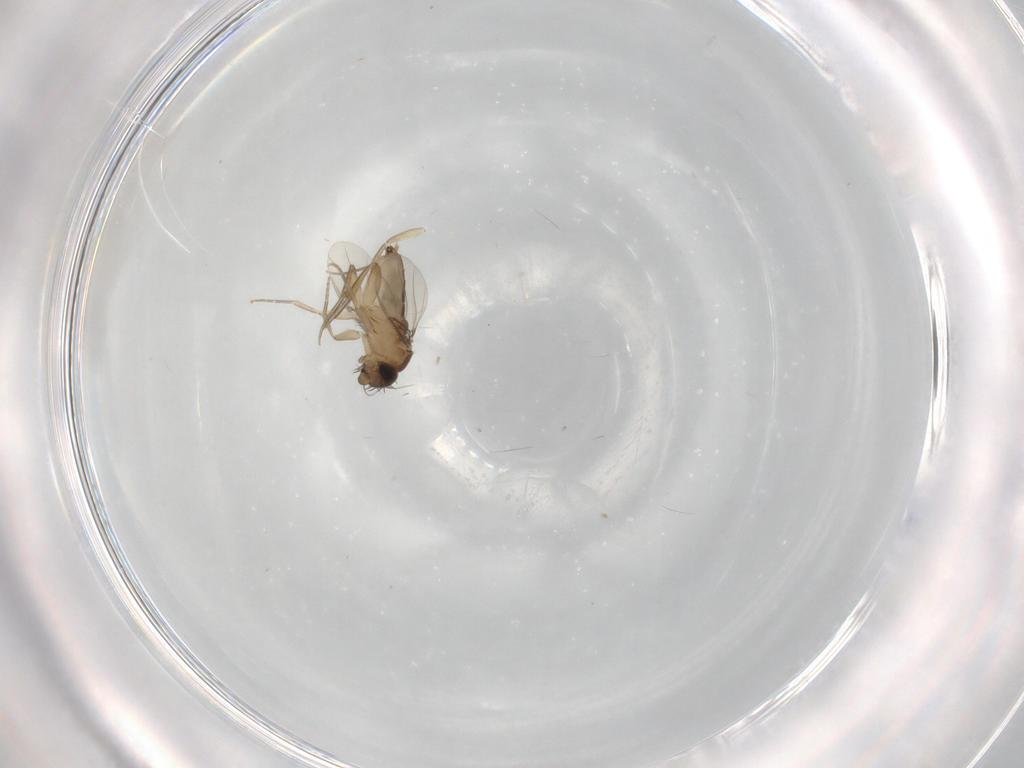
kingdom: Animalia
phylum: Arthropoda
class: Insecta
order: Diptera
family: Phoridae
